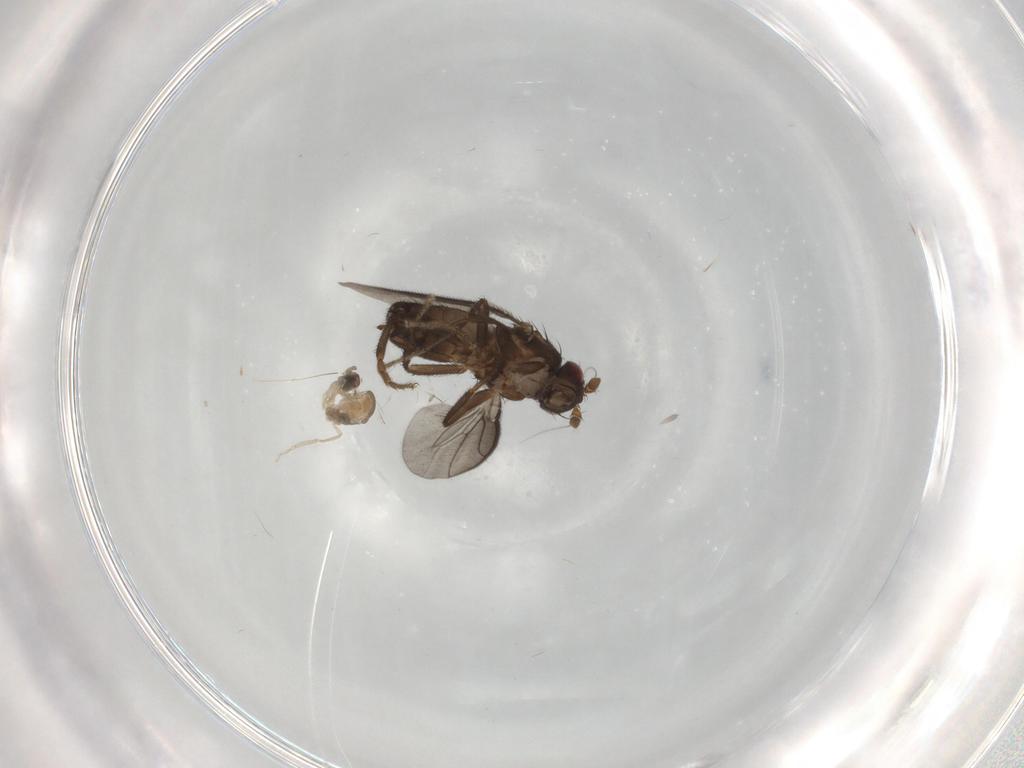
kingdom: Animalia
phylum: Arthropoda
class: Insecta
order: Diptera
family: Sphaeroceridae
